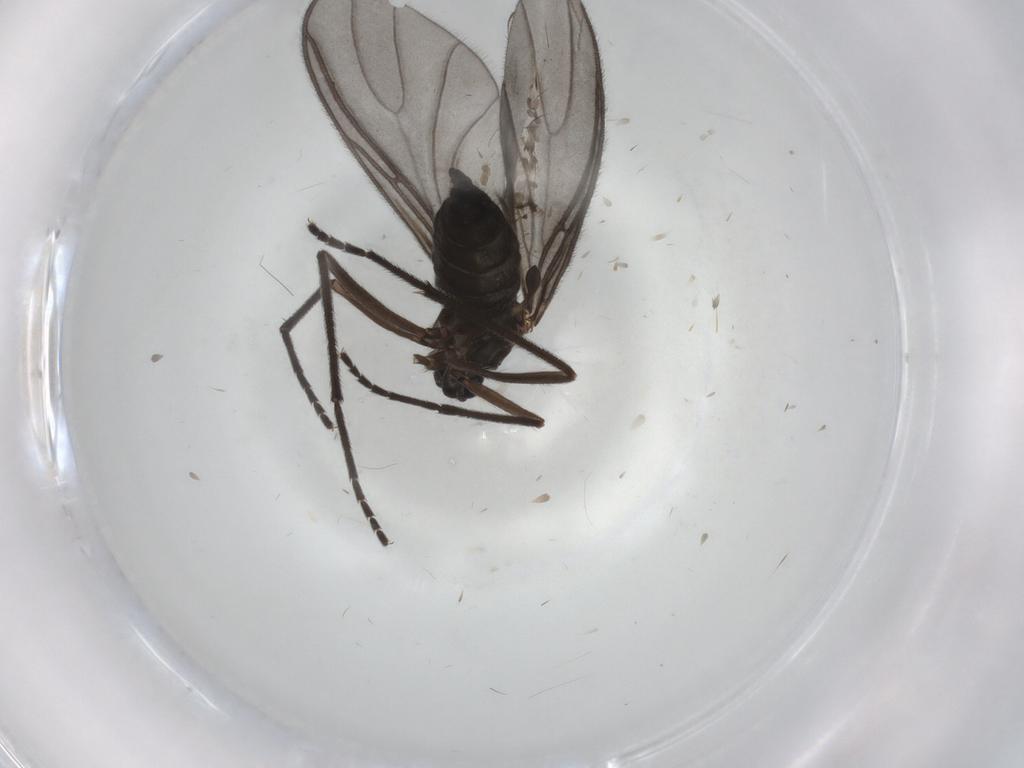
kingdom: Animalia
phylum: Arthropoda
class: Insecta
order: Diptera
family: Sciaridae
